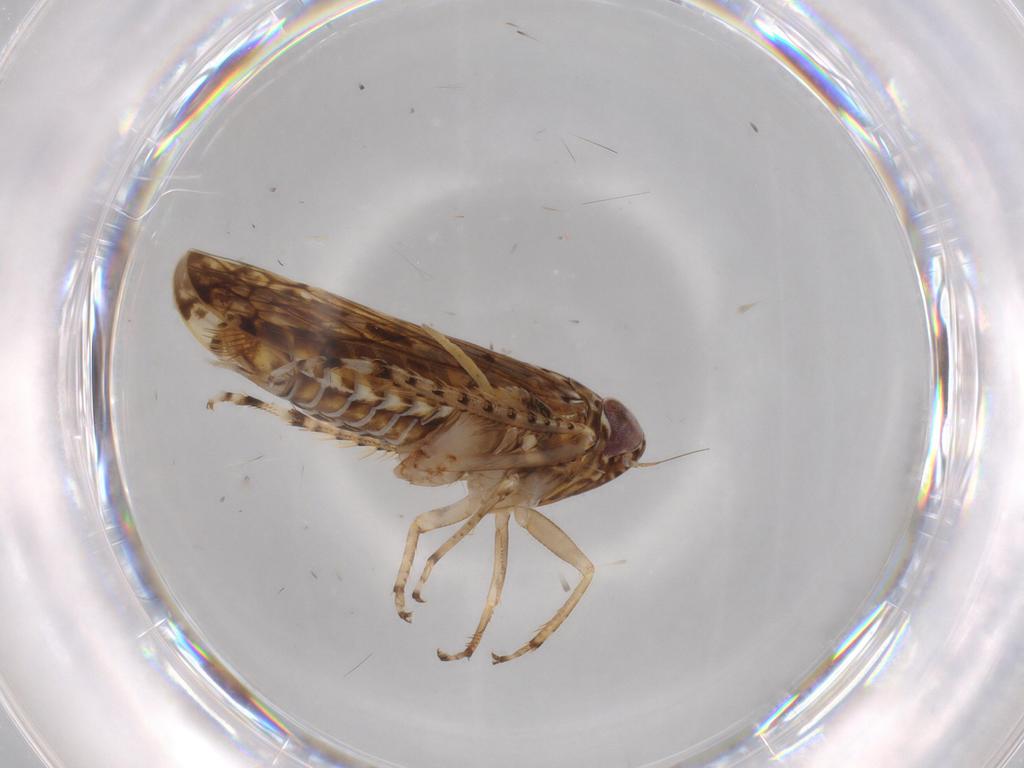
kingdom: Animalia
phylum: Arthropoda
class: Insecta
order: Hemiptera
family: Cicadellidae
